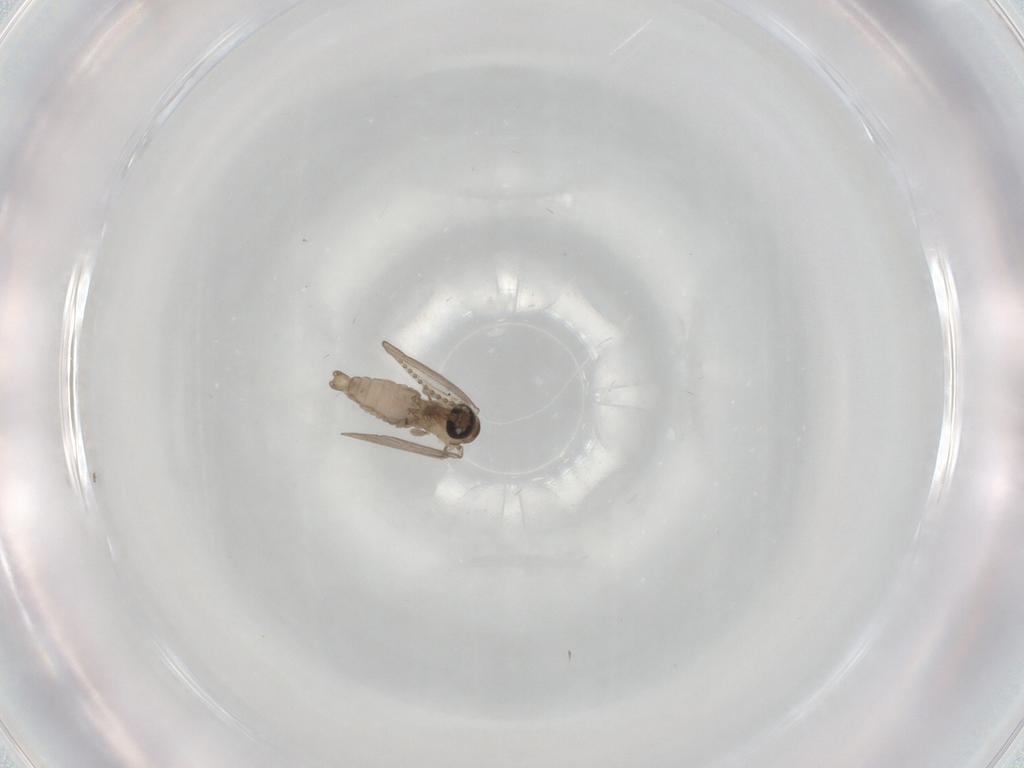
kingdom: Animalia
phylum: Arthropoda
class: Insecta
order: Diptera
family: Psychodidae
